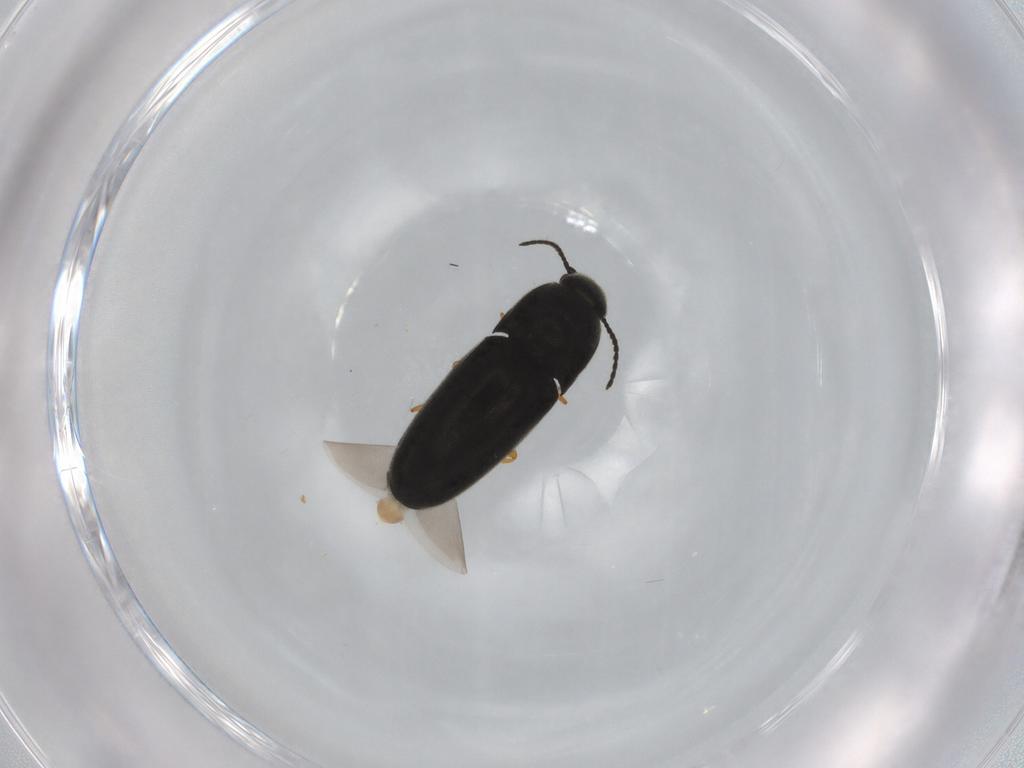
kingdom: Animalia
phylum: Arthropoda
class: Insecta
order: Coleoptera
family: Elateridae
